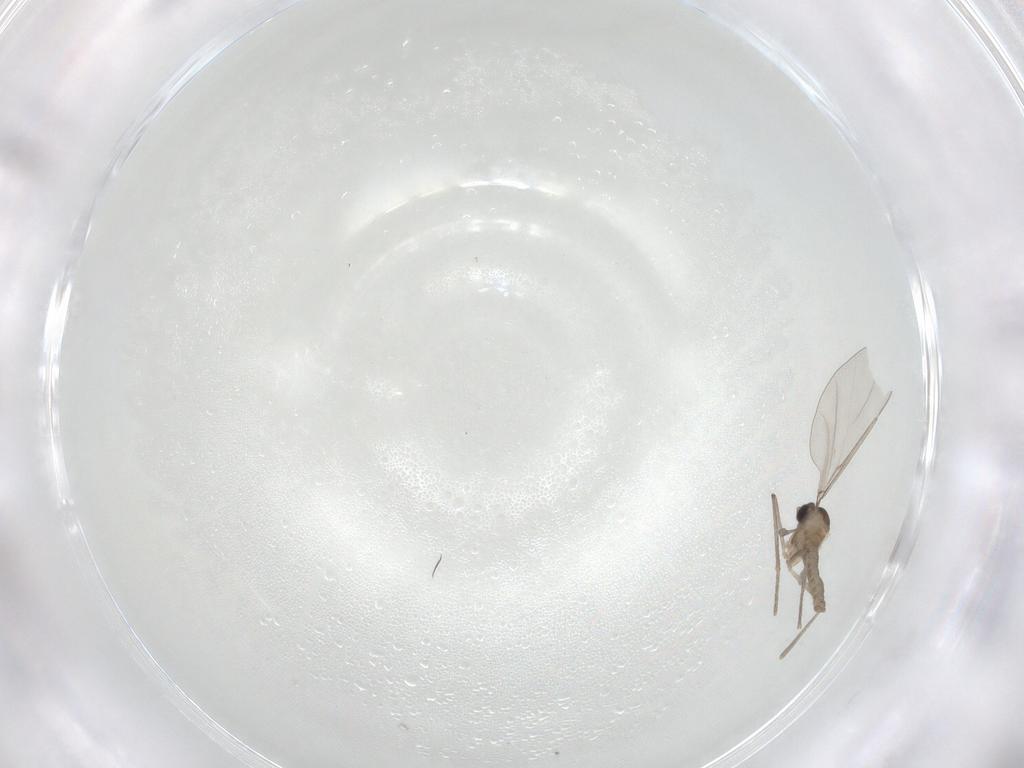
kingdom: Animalia
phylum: Arthropoda
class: Insecta
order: Diptera
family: Cecidomyiidae
